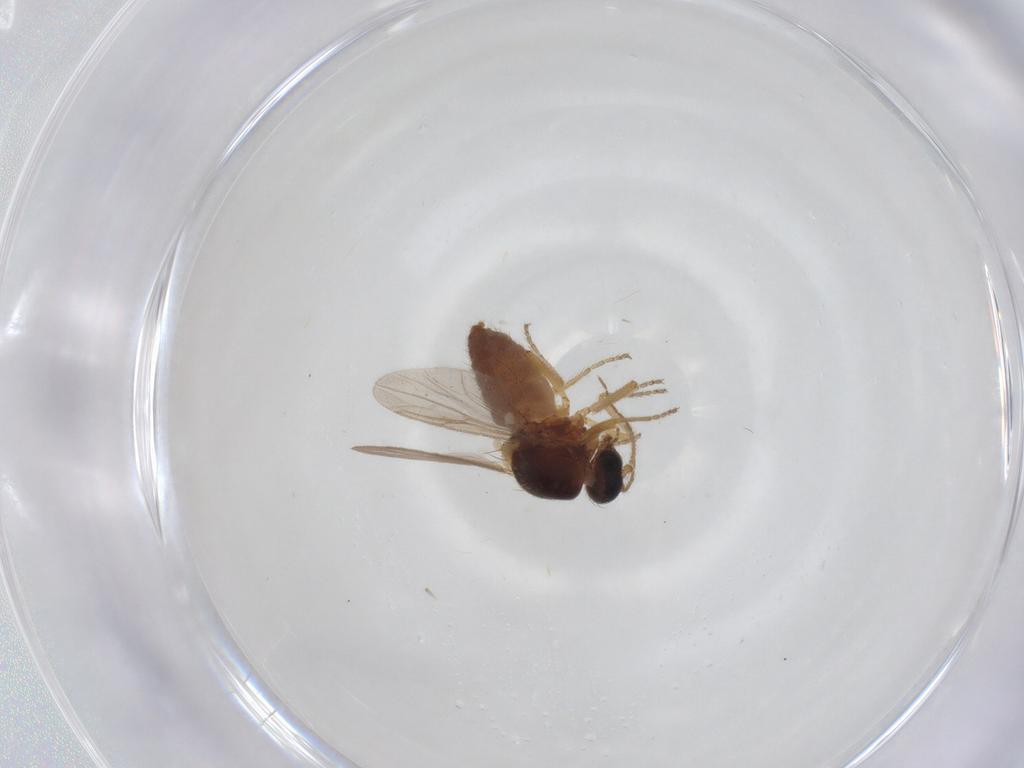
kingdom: Animalia
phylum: Arthropoda
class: Insecta
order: Diptera
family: Ceratopogonidae
